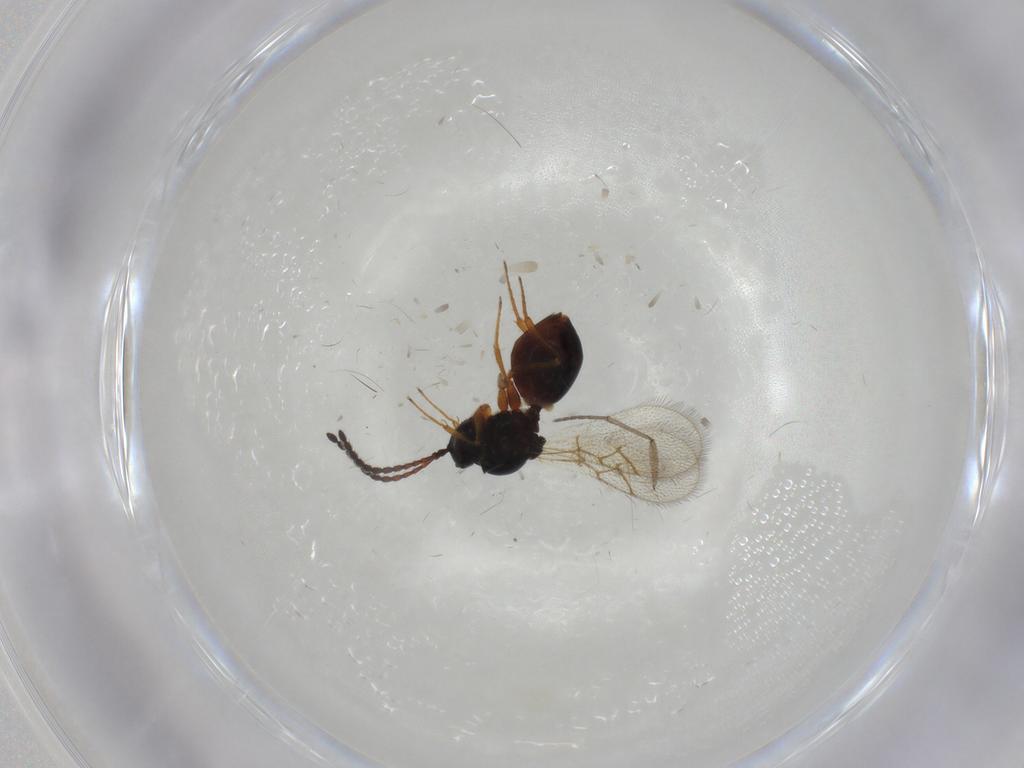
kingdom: Animalia
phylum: Arthropoda
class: Insecta
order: Hymenoptera
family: Figitidae
